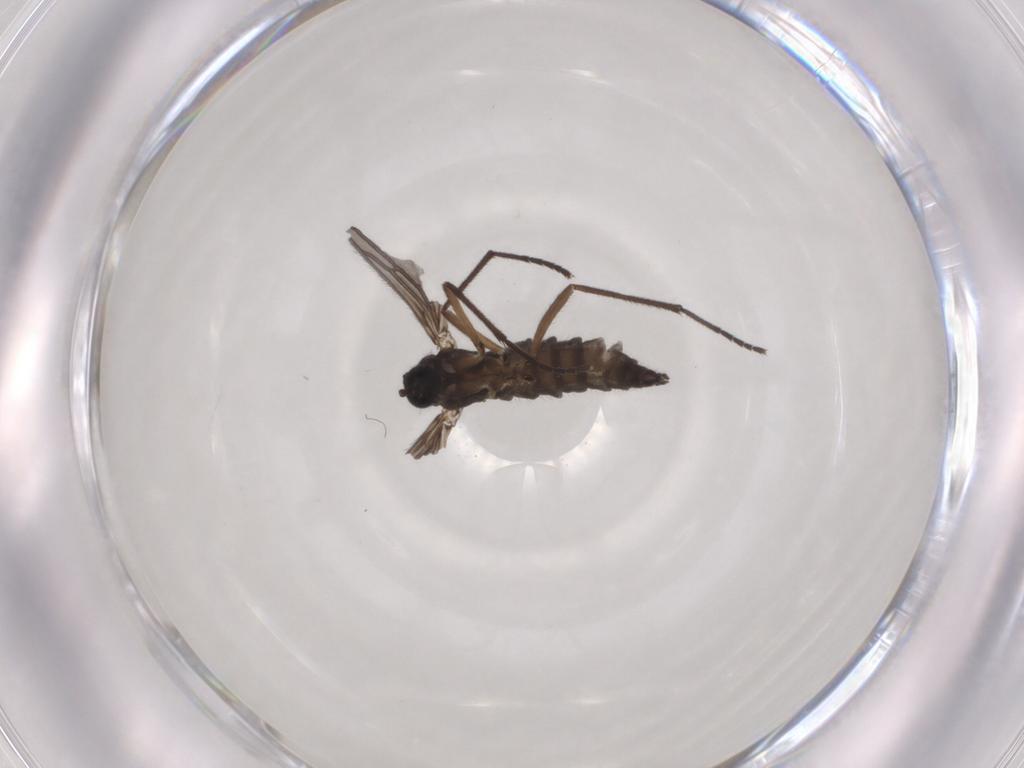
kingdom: Animalia
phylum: Arthropoda
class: Insecta
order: Diptera
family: Sciaridae
